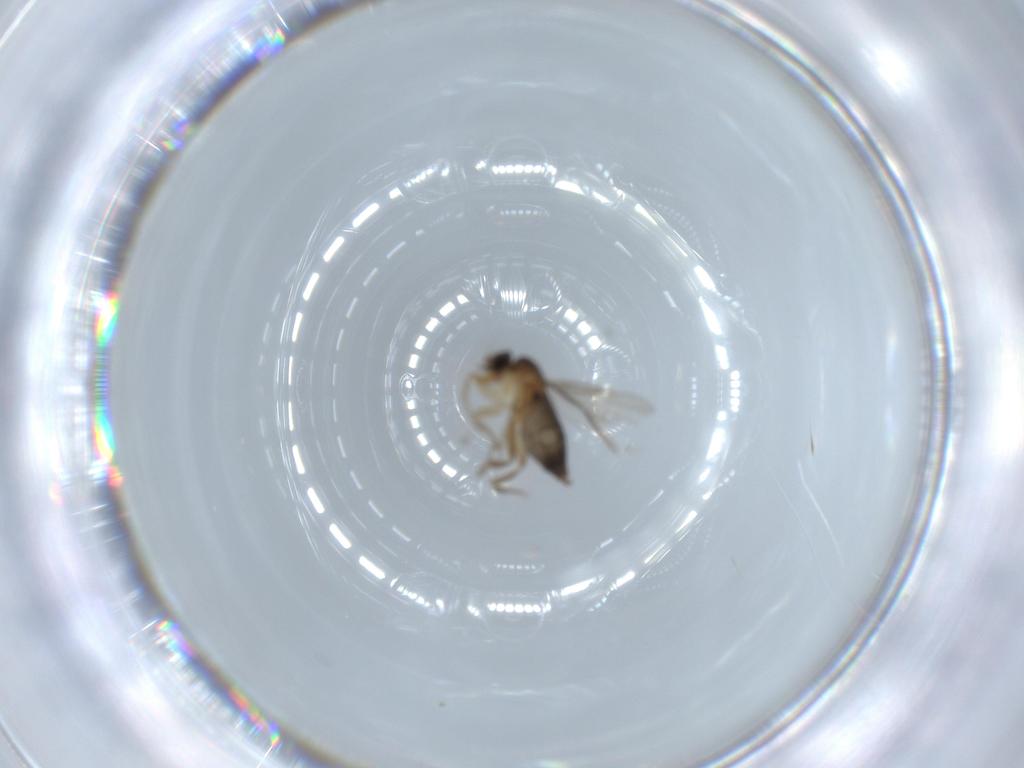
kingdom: Animalia
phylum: Arthropoda
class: Insecta
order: Diptera
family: Phoridae
